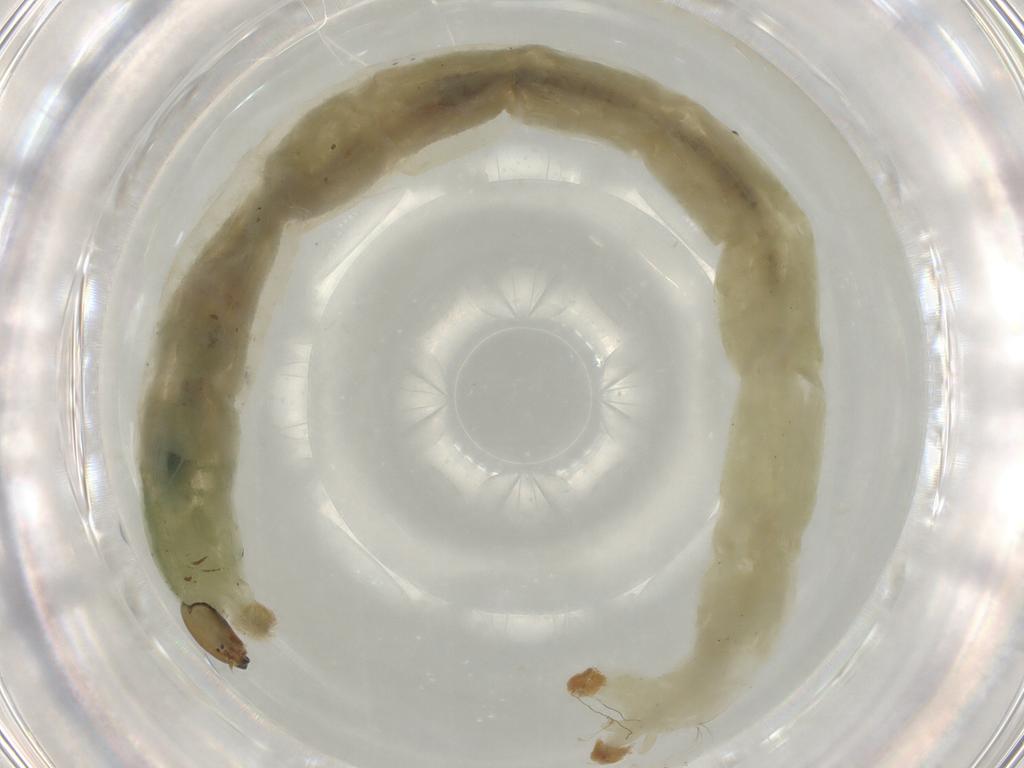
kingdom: Animalia
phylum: Arthropoda
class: Insecta
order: Diptera
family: Chironomidae
